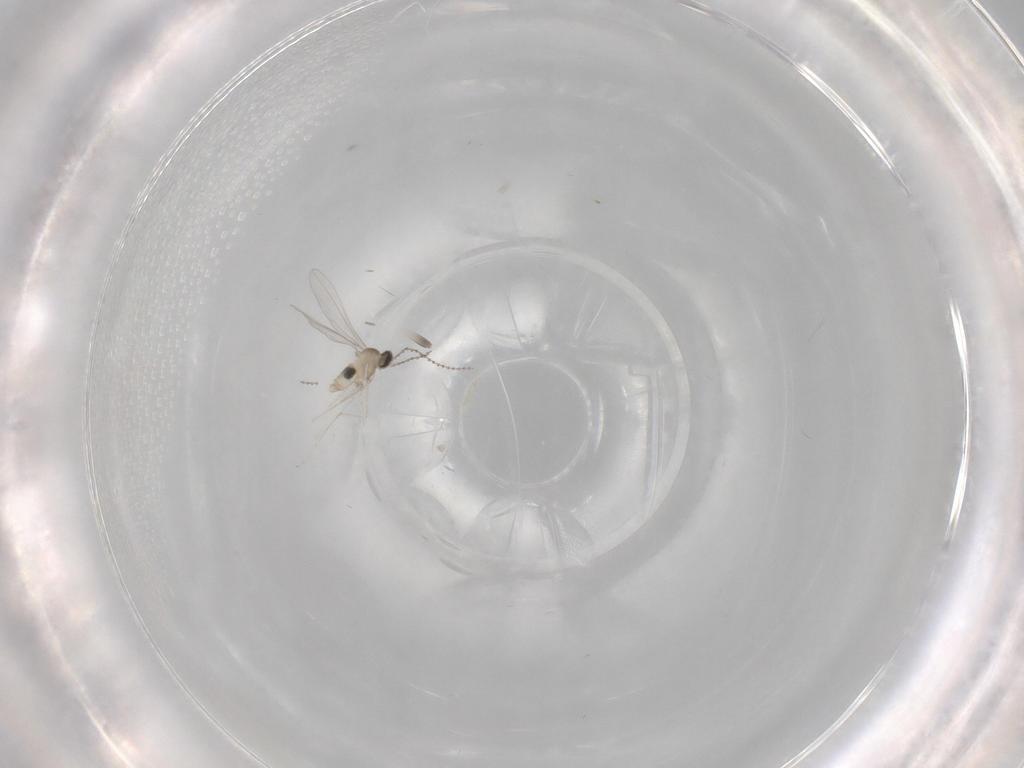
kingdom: Animalia
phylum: Arthropoda
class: Insecta
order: Diptera
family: Cecidomyiidae
